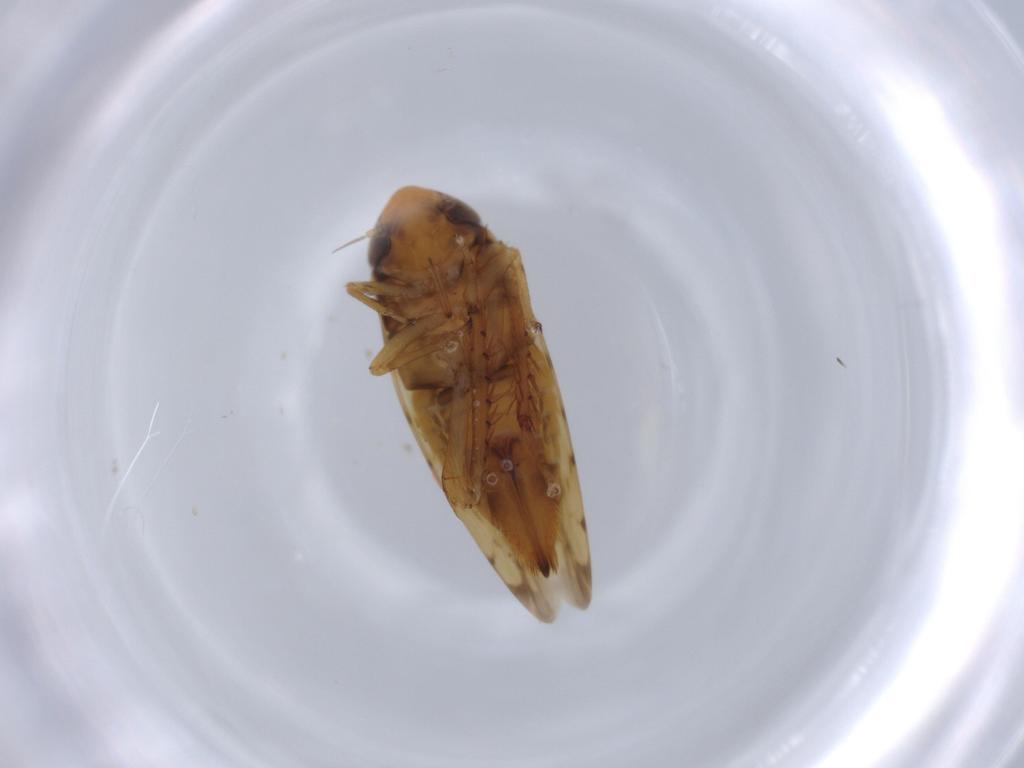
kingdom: Animalia
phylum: Arthropoda
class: Insecta
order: Hemiptera
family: Cicadellidae
